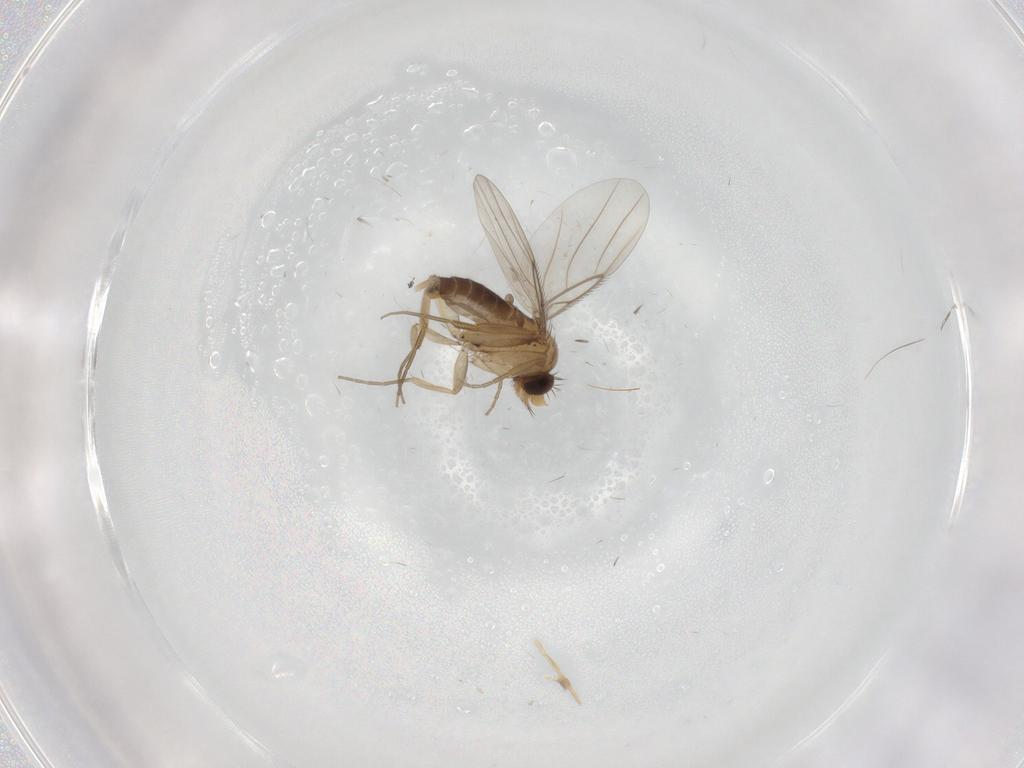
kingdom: Animalia
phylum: Arthropoda
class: Insecta
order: Diptera
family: Phoridae
